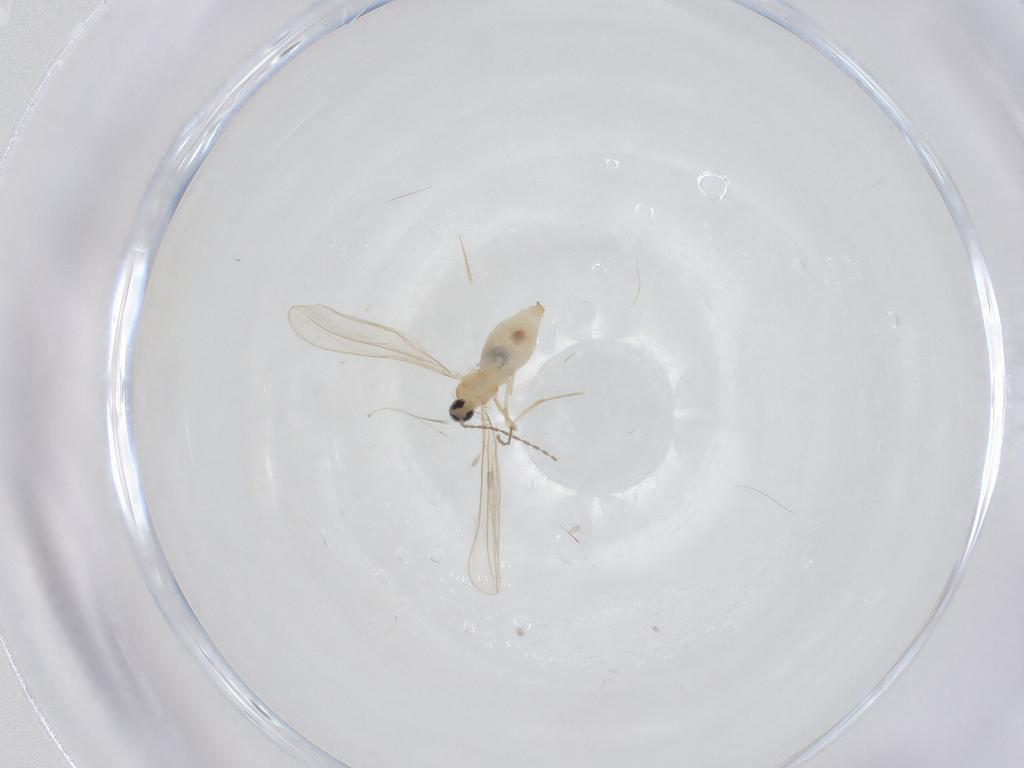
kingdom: Animalia
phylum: Arthropoda
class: Insecta
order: Diptera
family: Cecidomyiidae
